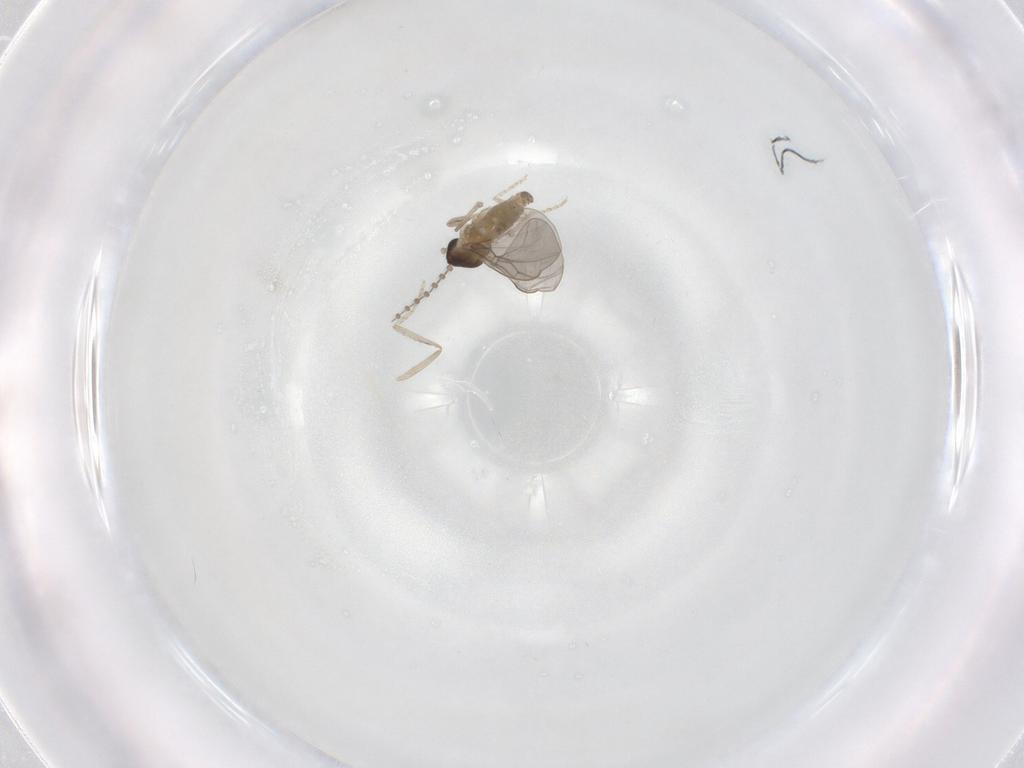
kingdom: Animalia
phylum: Arthropoda
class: Insecta
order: Diptera
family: Cecidomyiidae
